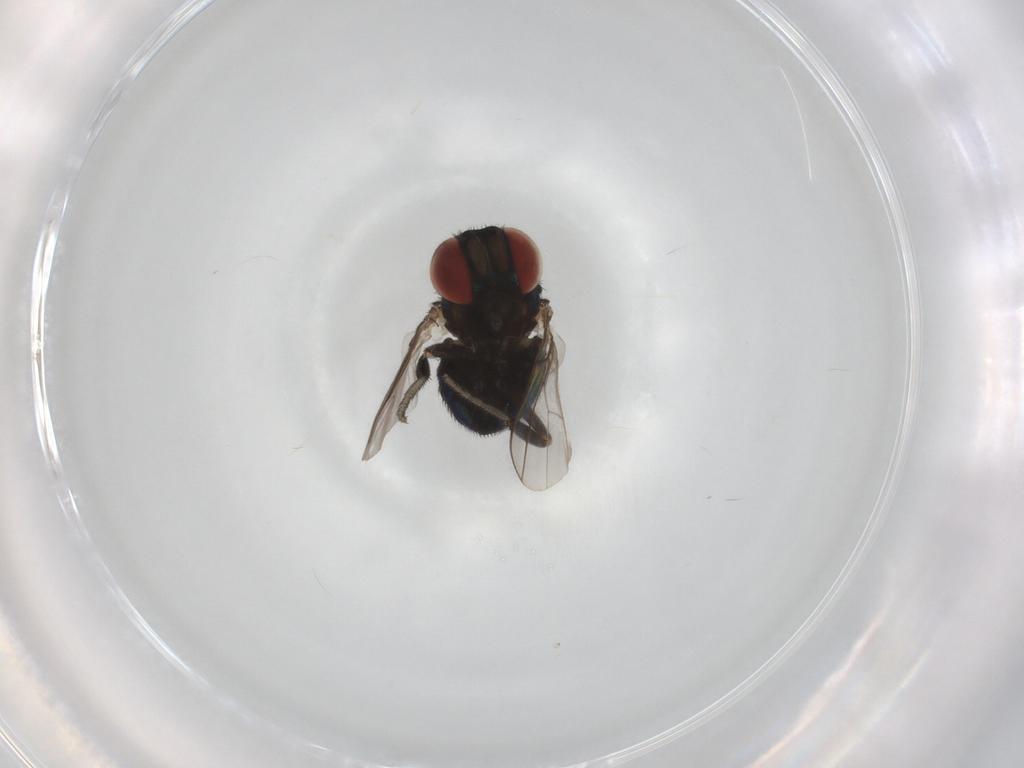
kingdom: Animalia
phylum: Arthropoda
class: Insecta
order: Diptera
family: Cryptochetidae
